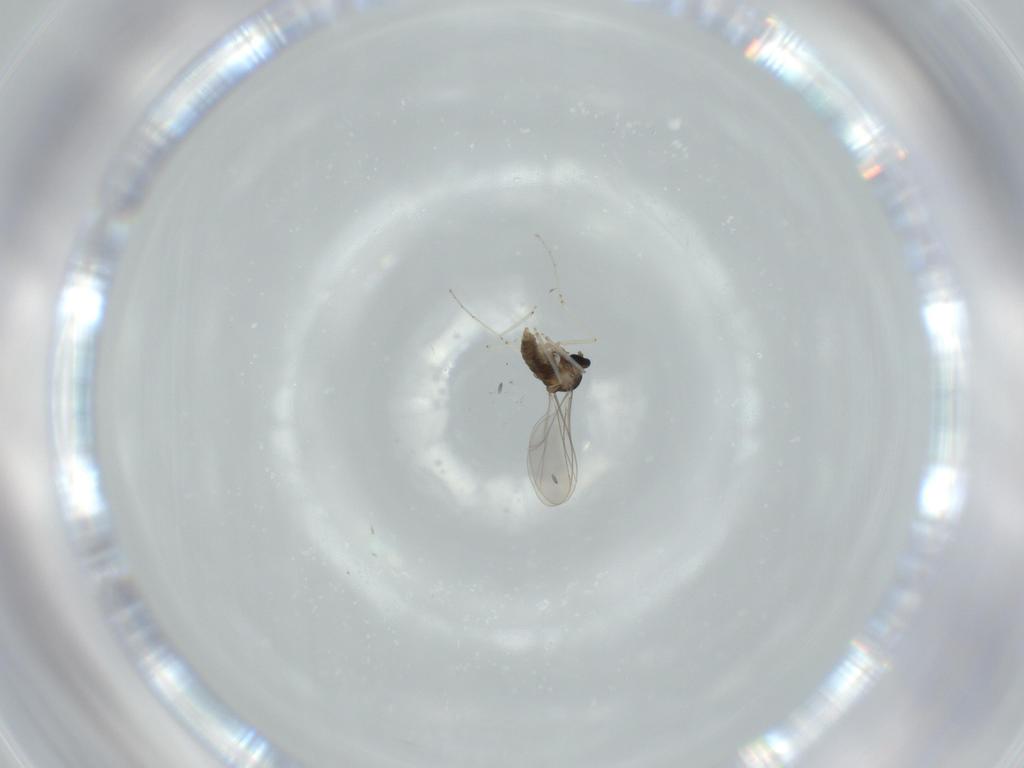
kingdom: Animalia
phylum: Arthropoda
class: Insecta
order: Diptera
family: Cecidomyiidae
